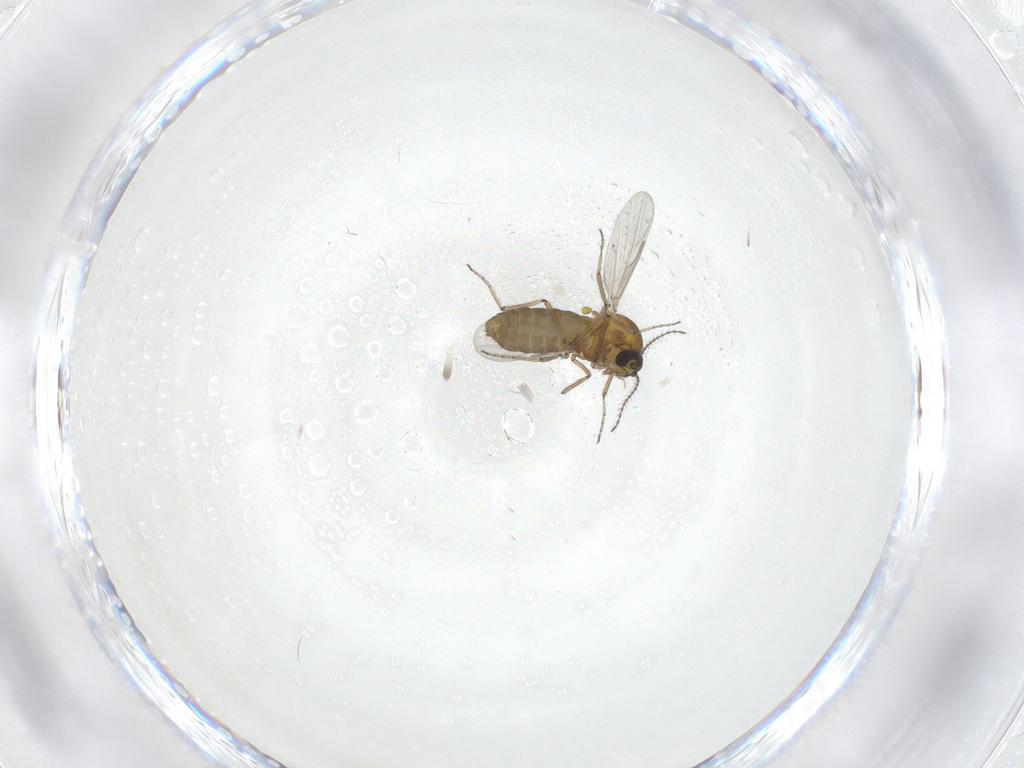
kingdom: Animalia
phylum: Arthropoda
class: Insecta
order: Diptera
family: Ceratopogonidae
